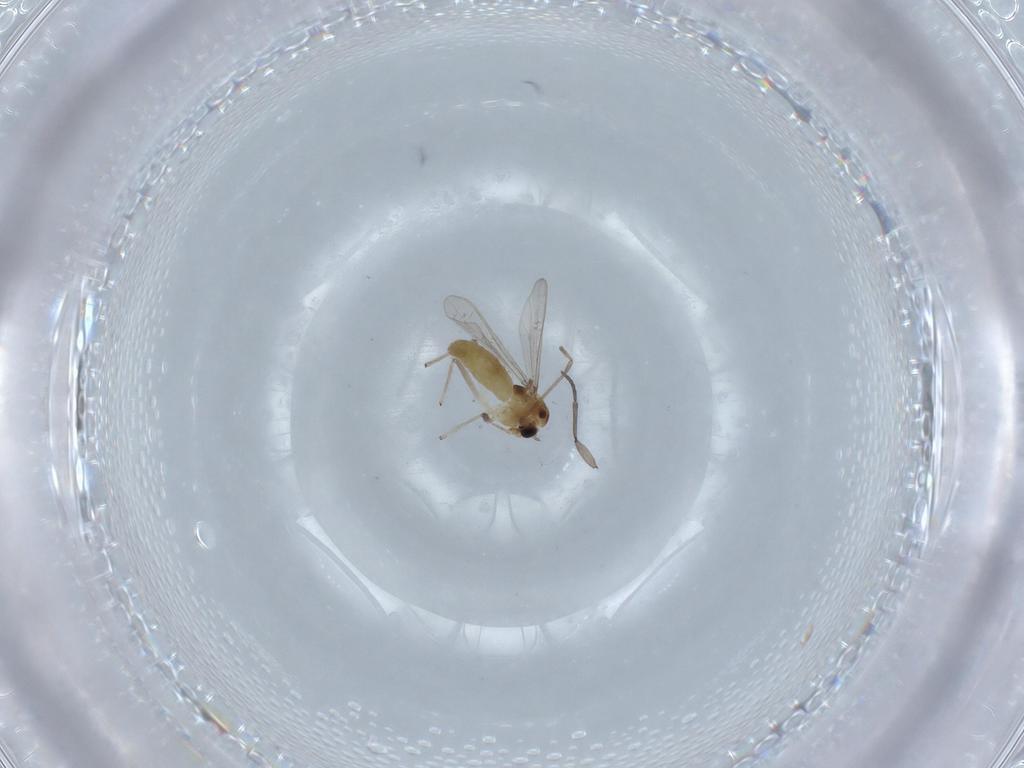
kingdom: Animalia
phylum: Arthropoda
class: Insecta
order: Diptera
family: Chironomidae
